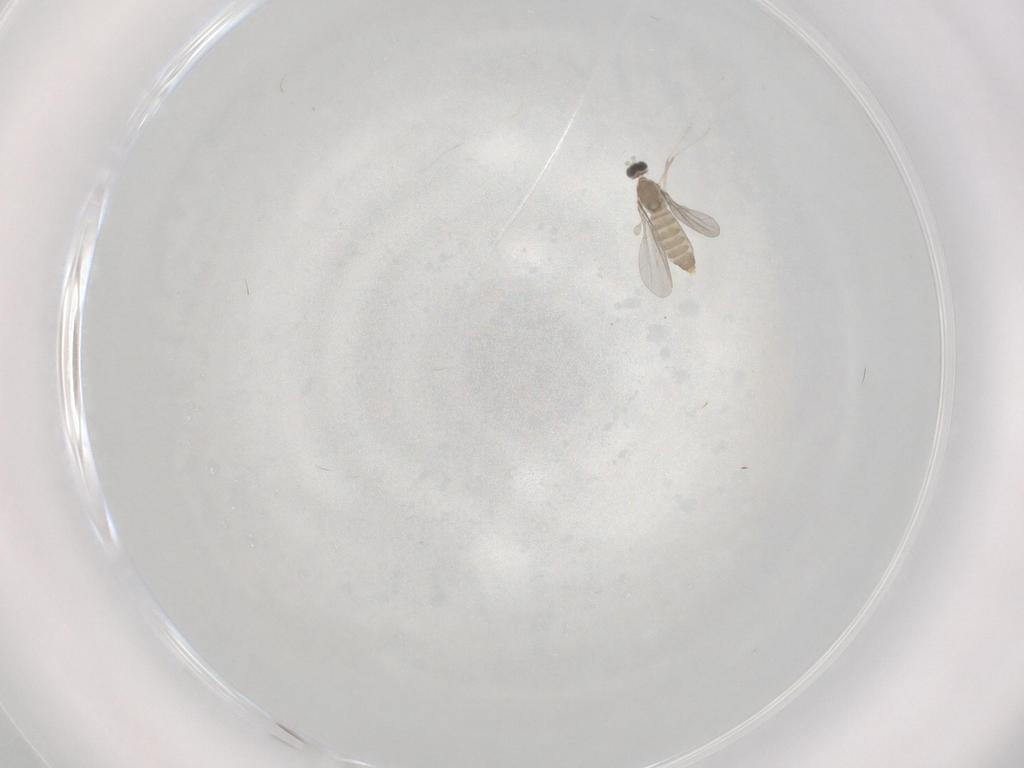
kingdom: Animalia
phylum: Arthropoda
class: Insecta
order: Diptera
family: Cecidomyiidae
